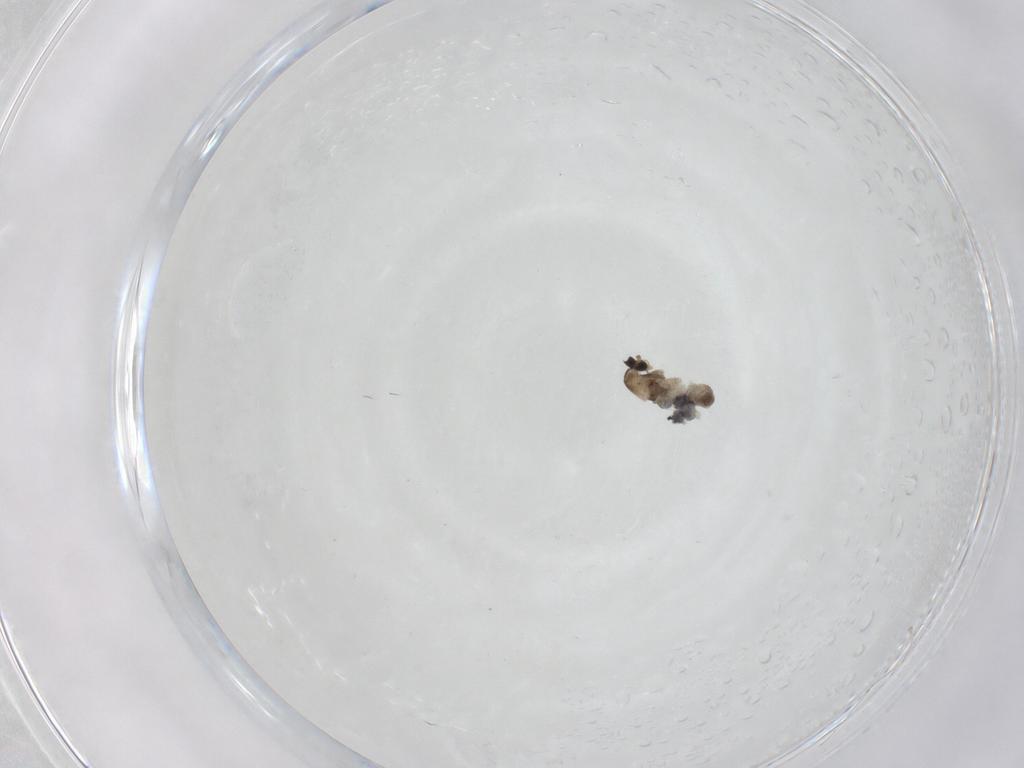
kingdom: Animalia
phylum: Arthropoda
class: Insecta
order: Diptera
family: Cecidomyiidae
